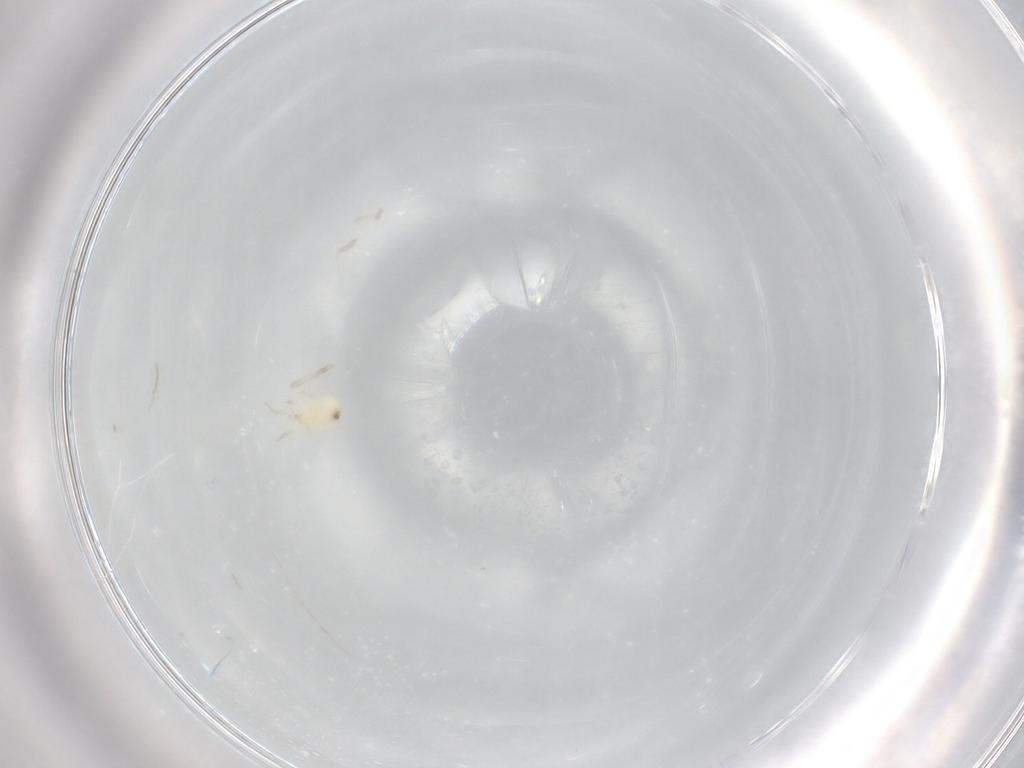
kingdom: Animalia
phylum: Arthropoda
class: Arachnida
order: Mesostigmata
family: Phytoseiidae
